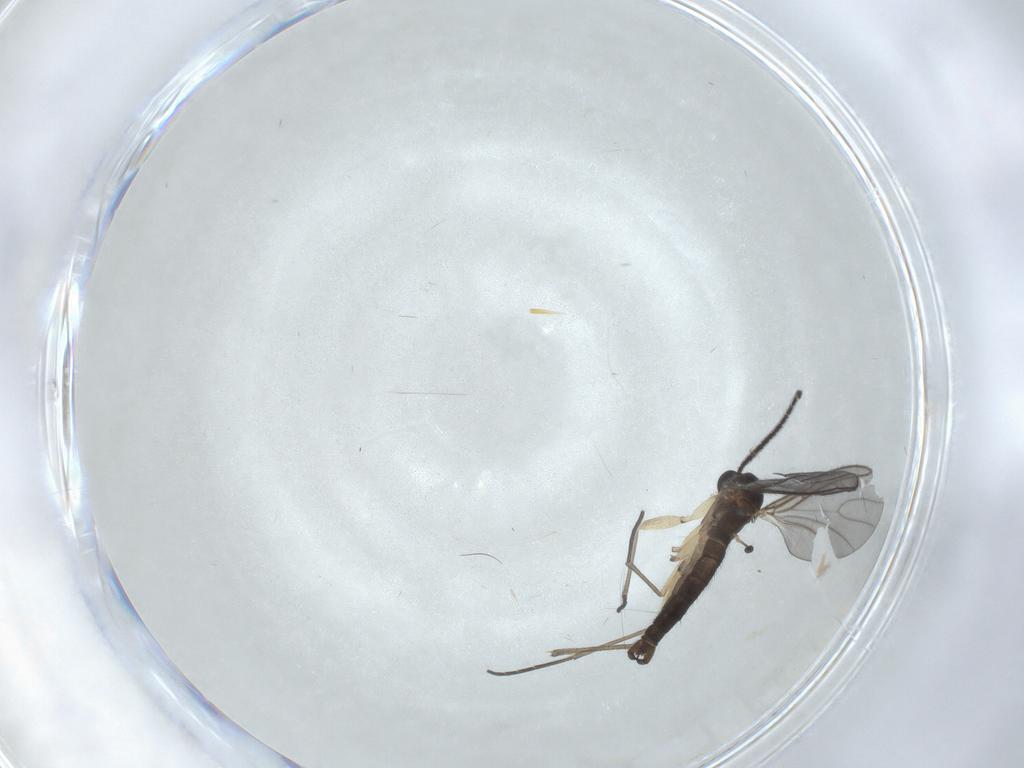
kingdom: Animalia
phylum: Arthropoda
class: Insecta
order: Diptera
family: Sciaridae
